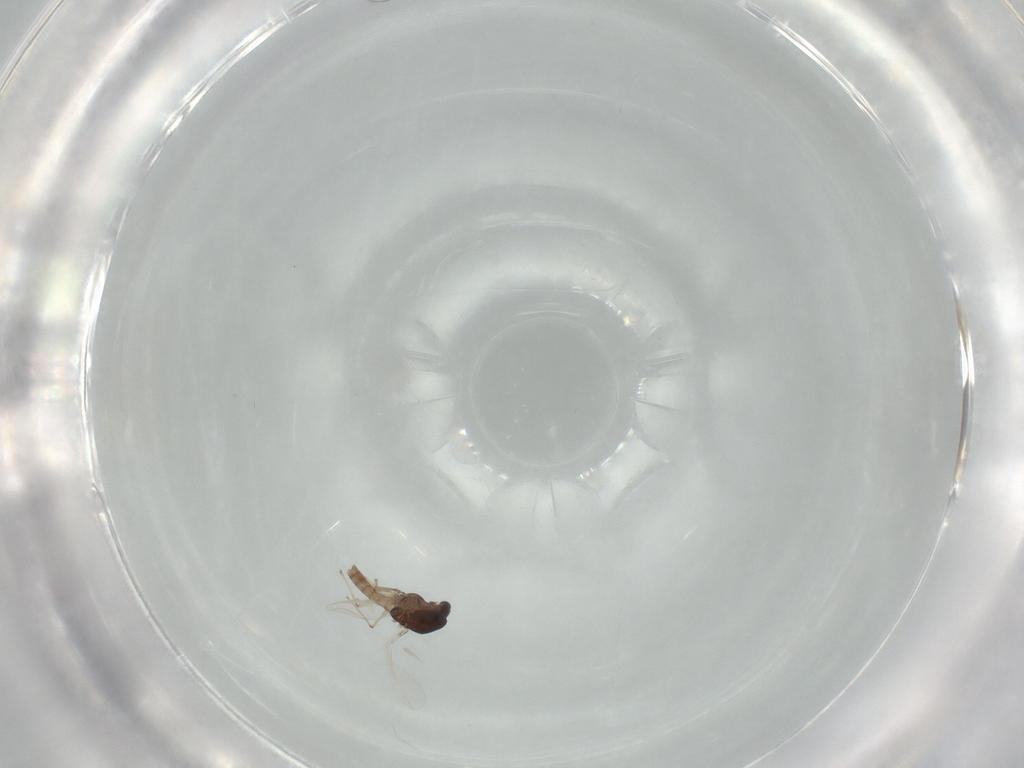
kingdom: Animalia
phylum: Arthropoda
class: Insecta
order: Diptera
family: Chironomidae
